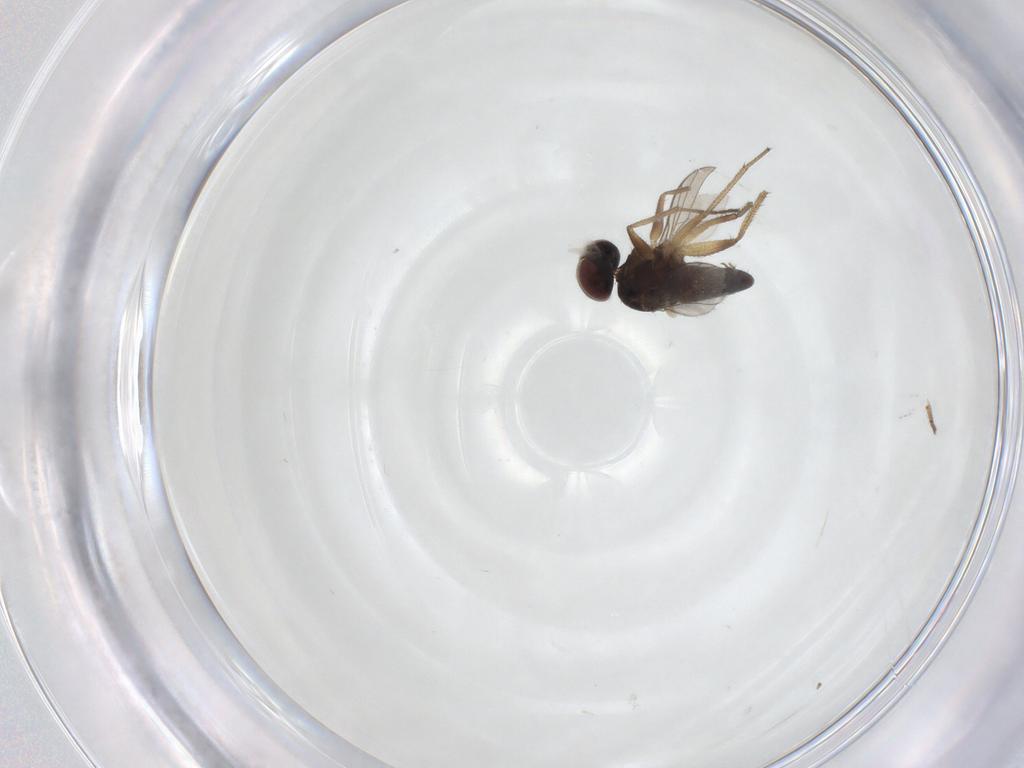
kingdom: Animalia
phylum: Arthropoda
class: Insecta
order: Diptera
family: Dolichopodidae
